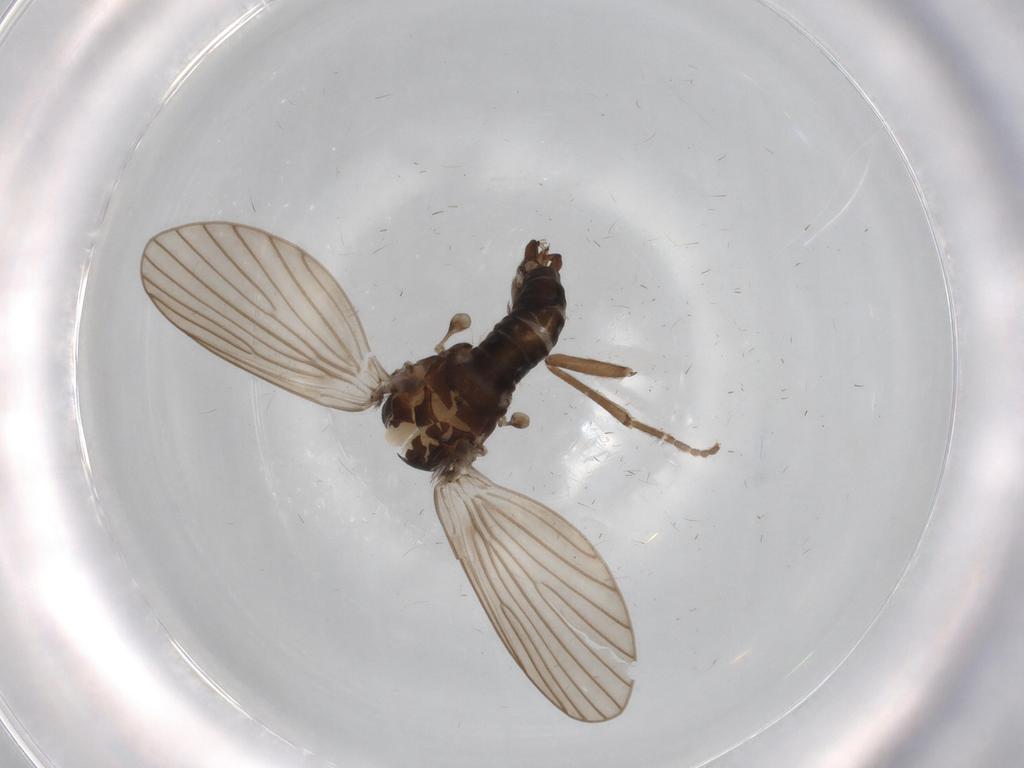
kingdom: Animalia
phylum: Arthropoda
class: Insecta
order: Diptera
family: Psychodidae
